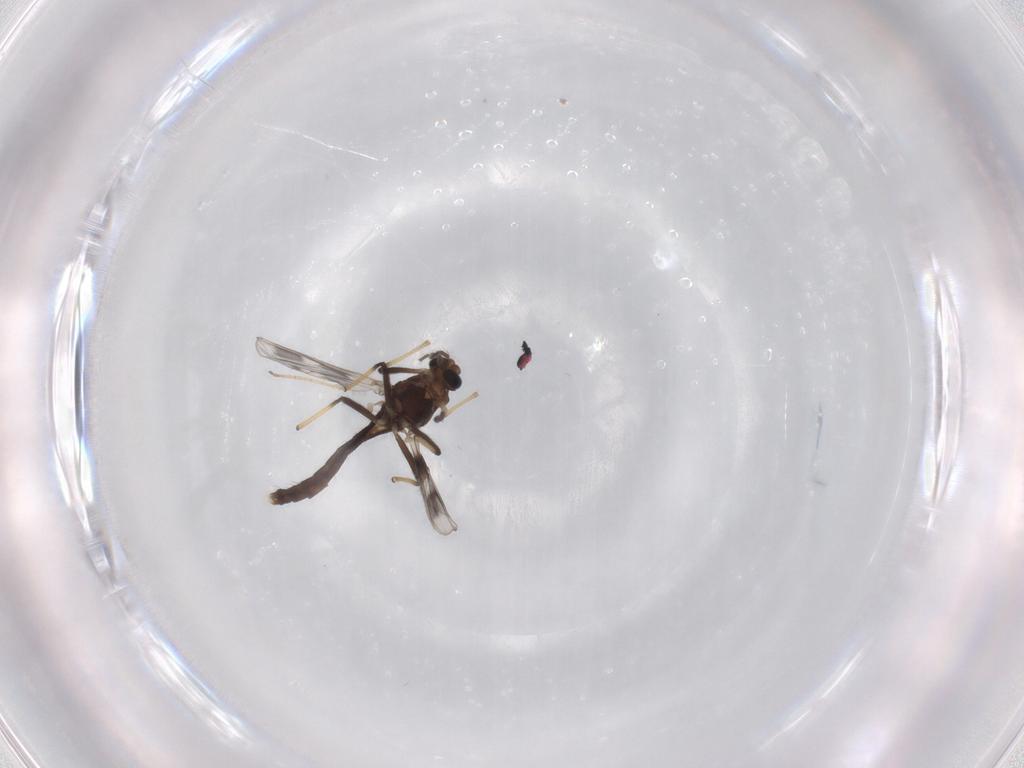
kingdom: Animalia
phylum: Arthropoda
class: Insecta
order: Diptera
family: Chironomidae
